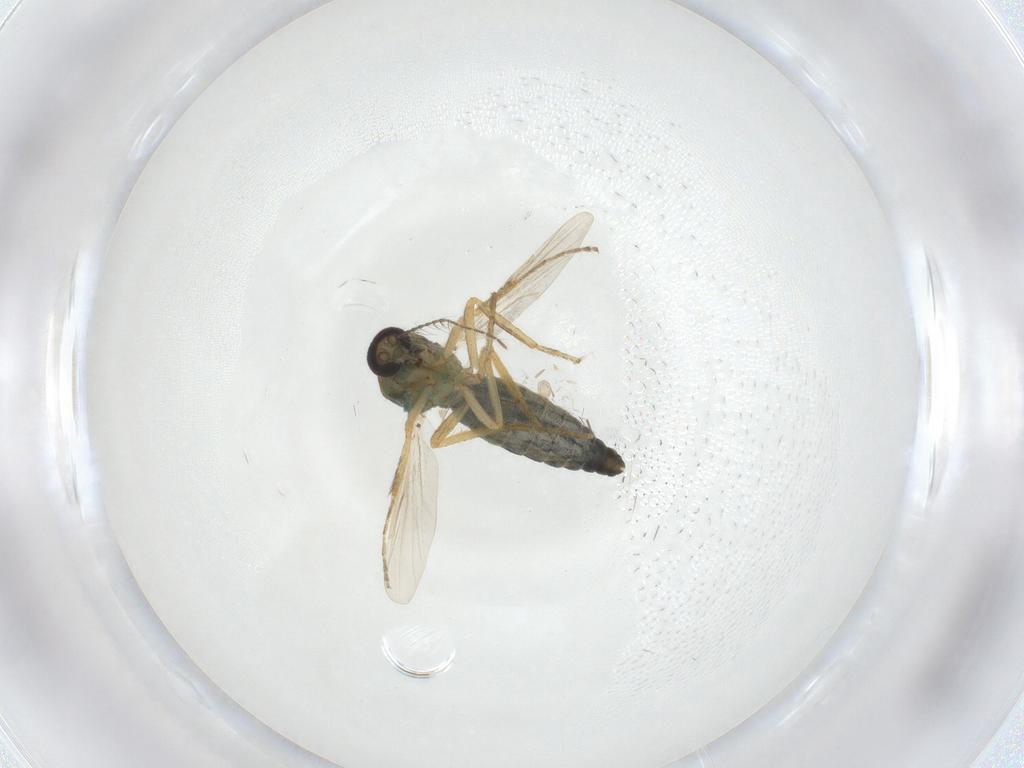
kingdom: Animalia
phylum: Arthropoda
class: Insecta
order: Diptera
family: Ceratopogonidae
